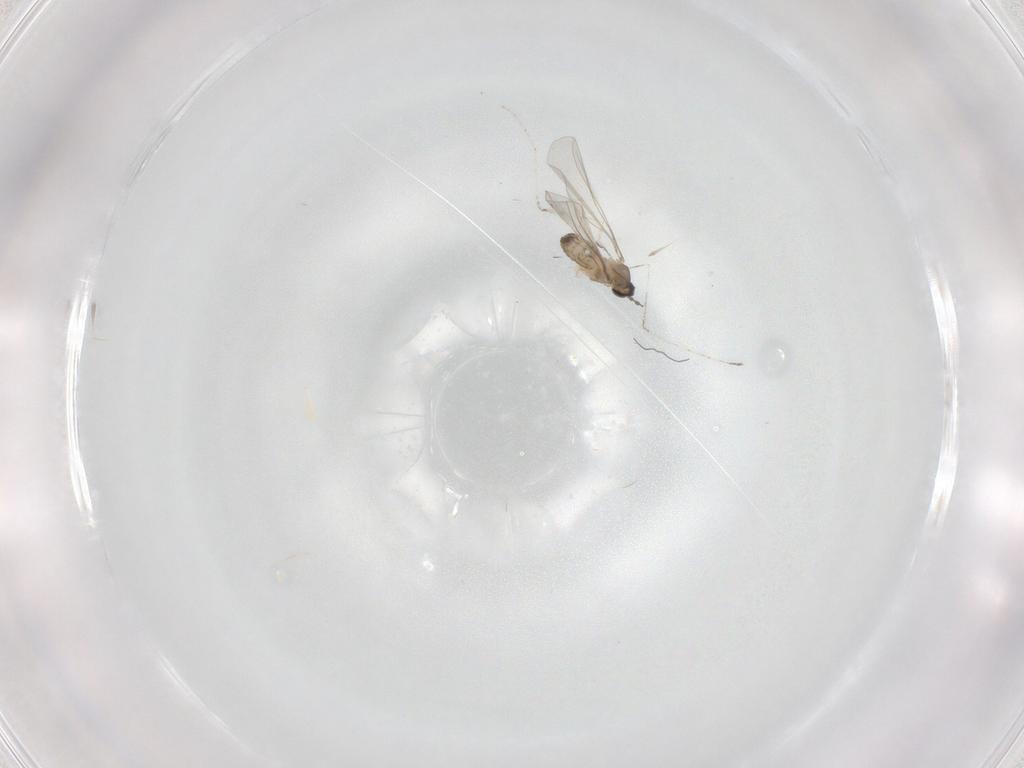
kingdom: Animalia
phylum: Arthropoda
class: Insecta
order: Diptera
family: Cecidomyiidae
